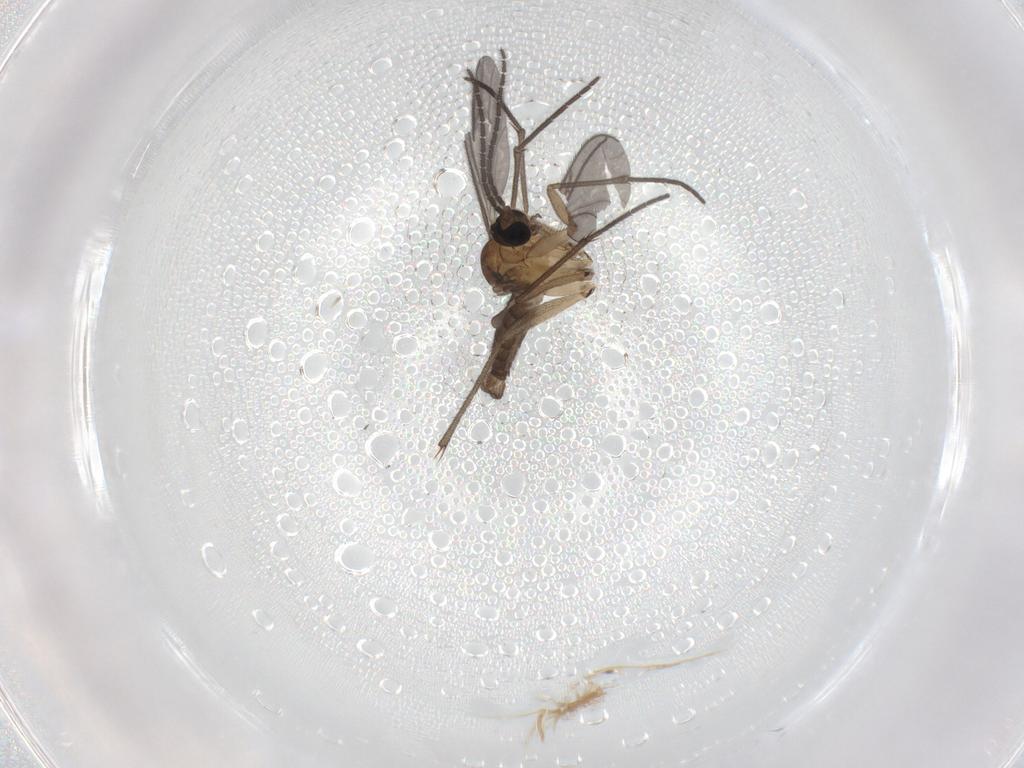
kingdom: Animalia
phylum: Arthropoda
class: Insecta
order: Diptera
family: Sciaridae
